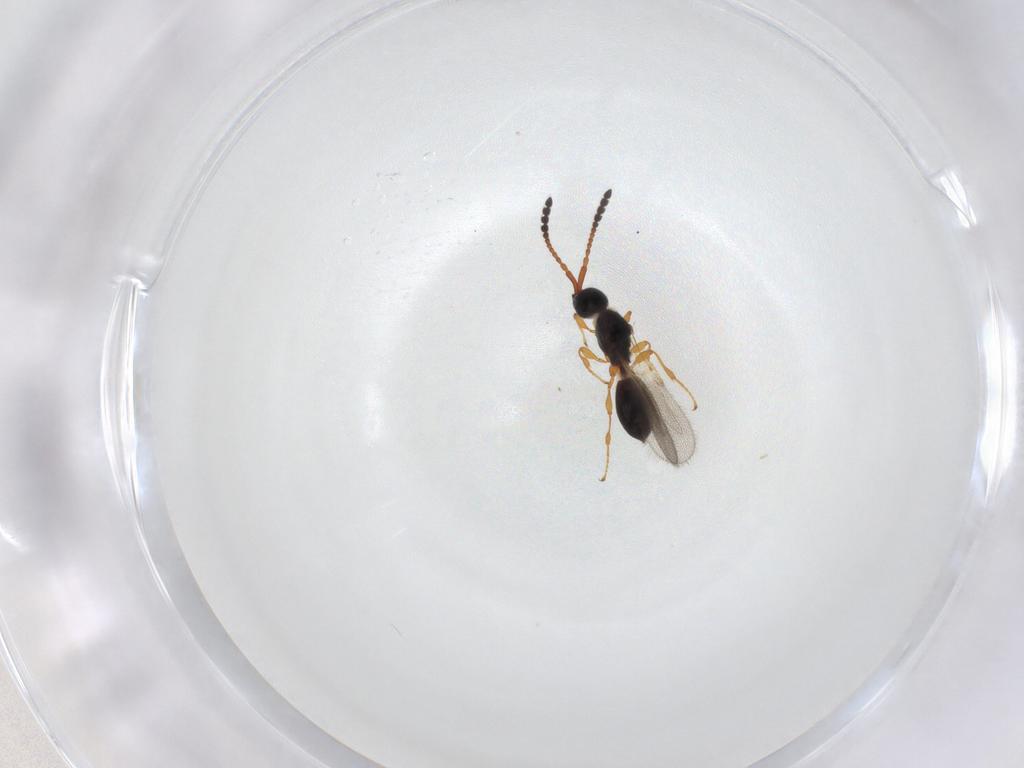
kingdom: Animalia
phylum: Arthropoda
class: Insecta
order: Hymenoptera
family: Diapriidae
